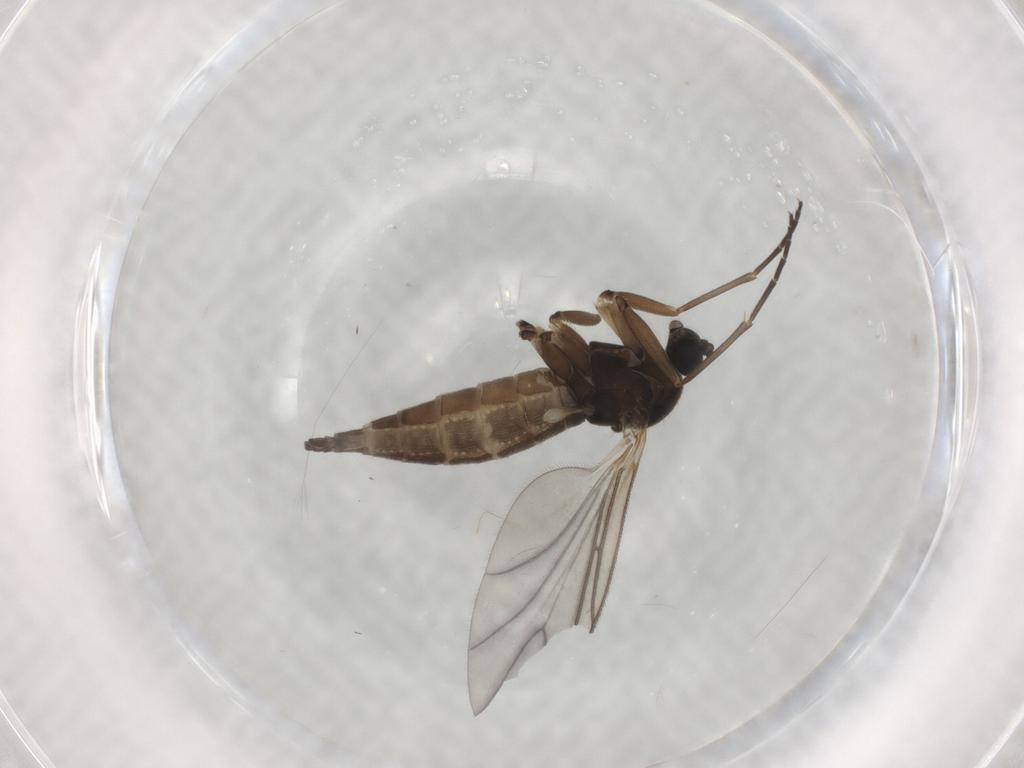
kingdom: Animalia
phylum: Arthropoda
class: Insecta
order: Diptera
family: Sciaridae
